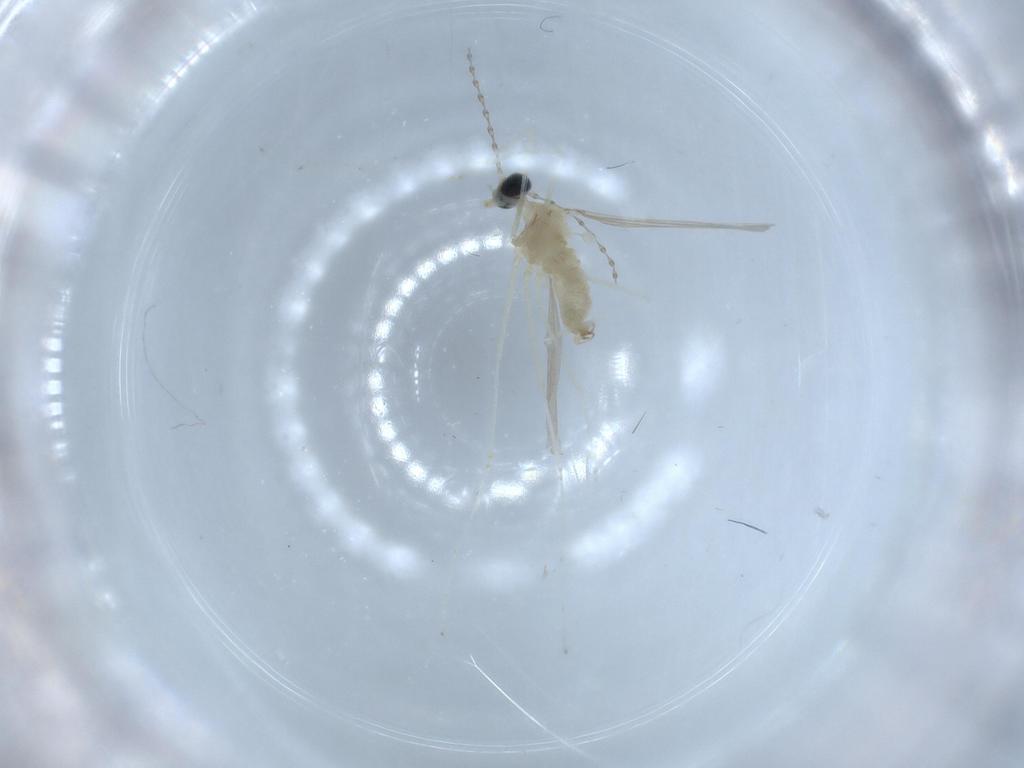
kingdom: Animalia
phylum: Arthropoda
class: Insecta
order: Diptera
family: Cecidomyiidae
